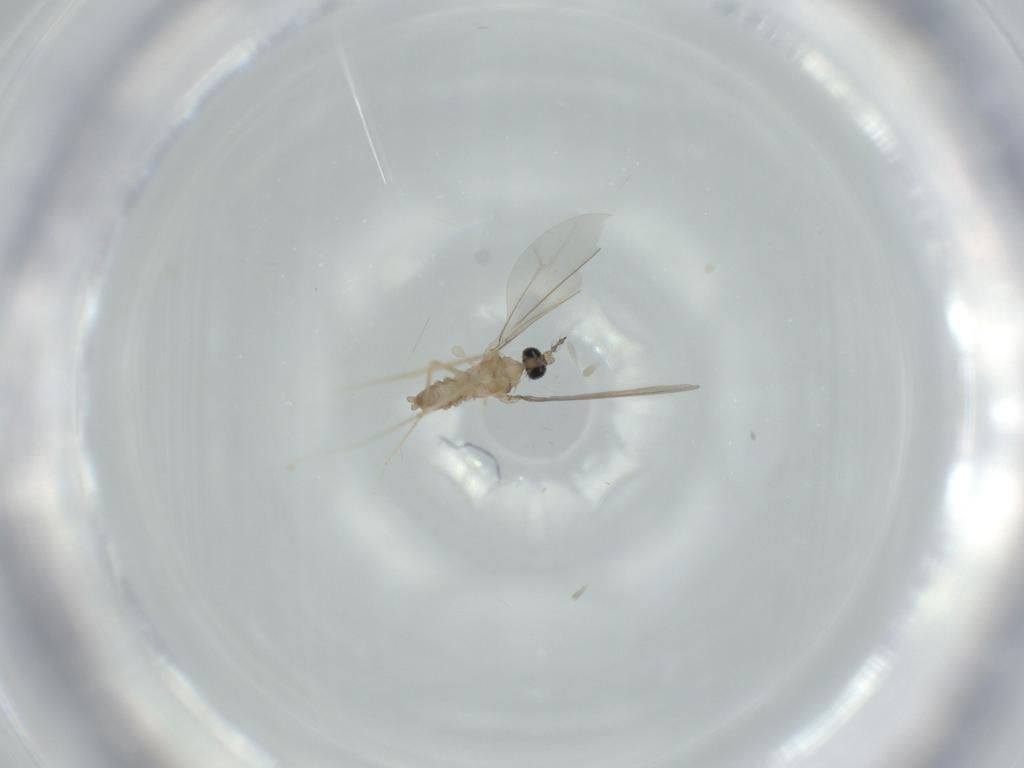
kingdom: Animalia
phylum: Arthropoda
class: Insecta
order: Diptera
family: Cecidomyiidae
